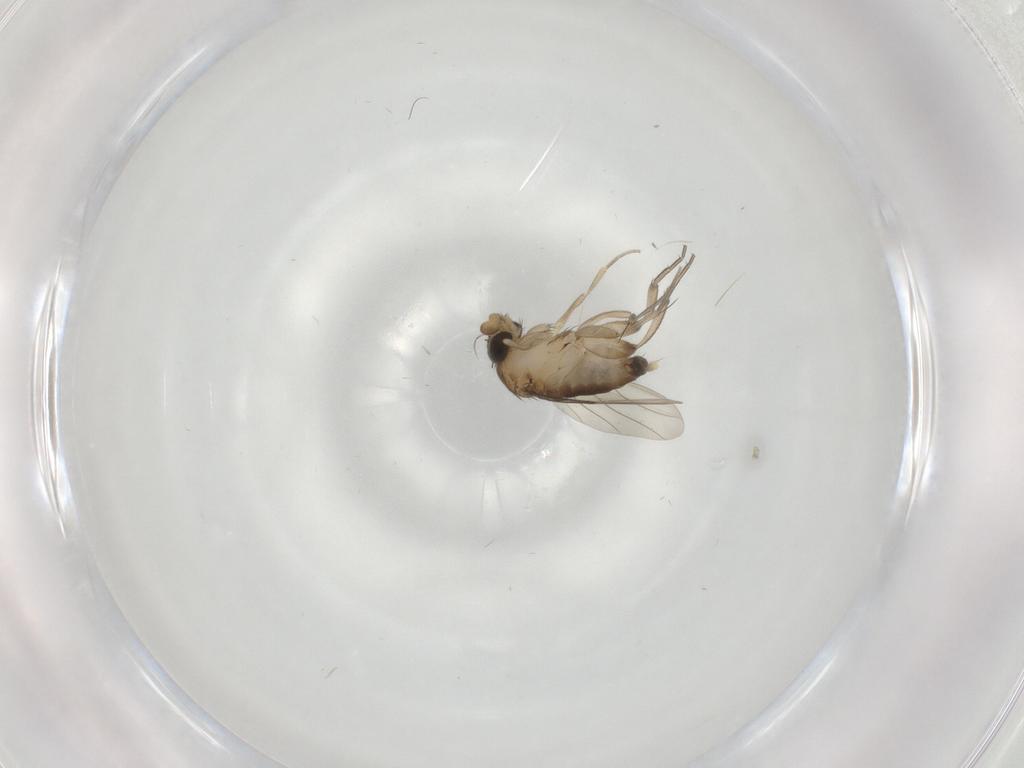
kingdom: Animalia
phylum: Arthropoda
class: Insecta
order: Diptera
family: Phoridae
